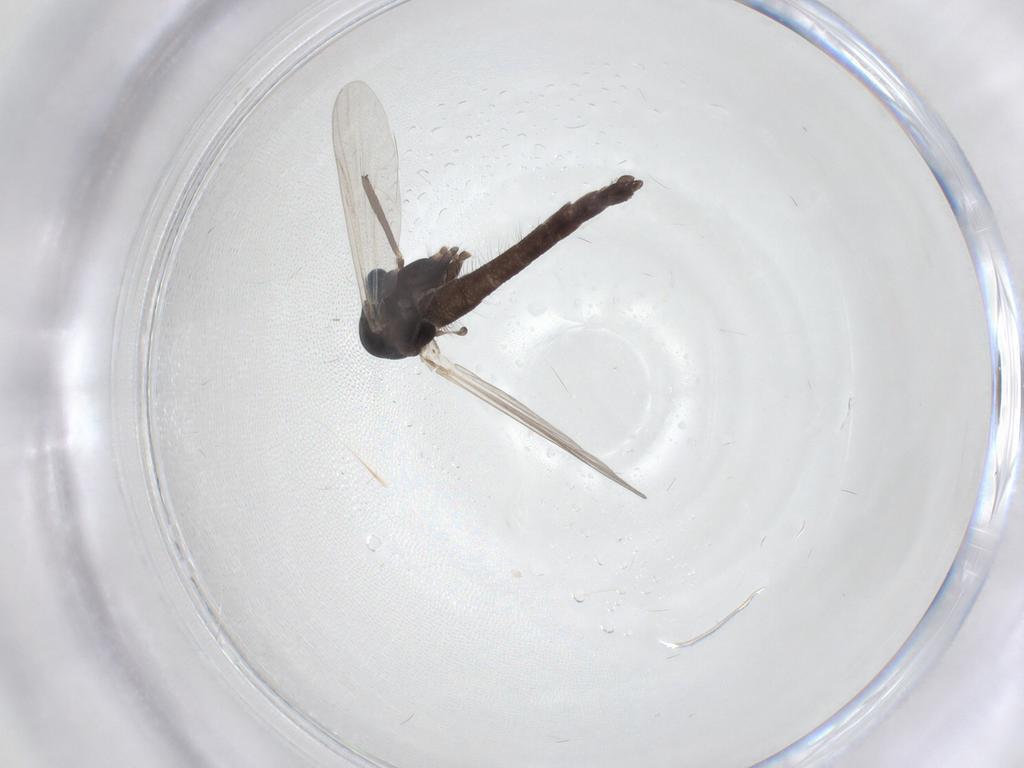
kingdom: Animalia
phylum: Arthropoda
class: Insecta
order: Diptera
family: Chironomidae
